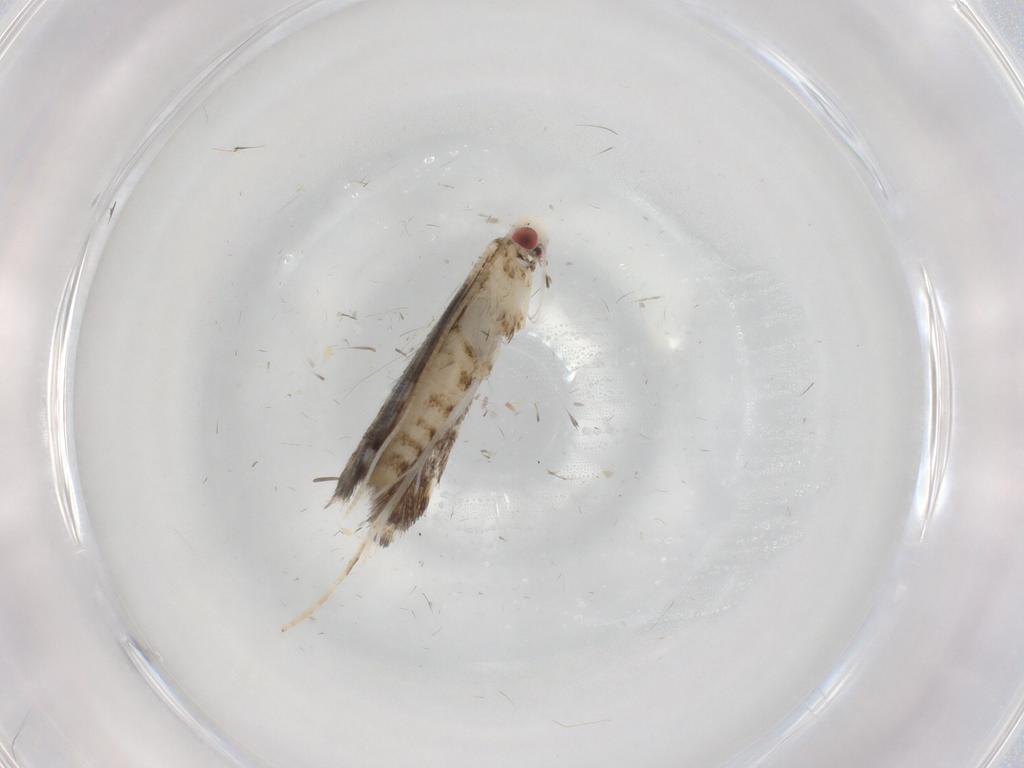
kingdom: Animalia
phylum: Arthropoda
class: Insecta
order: Lepidoptera
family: Gracillariidae
